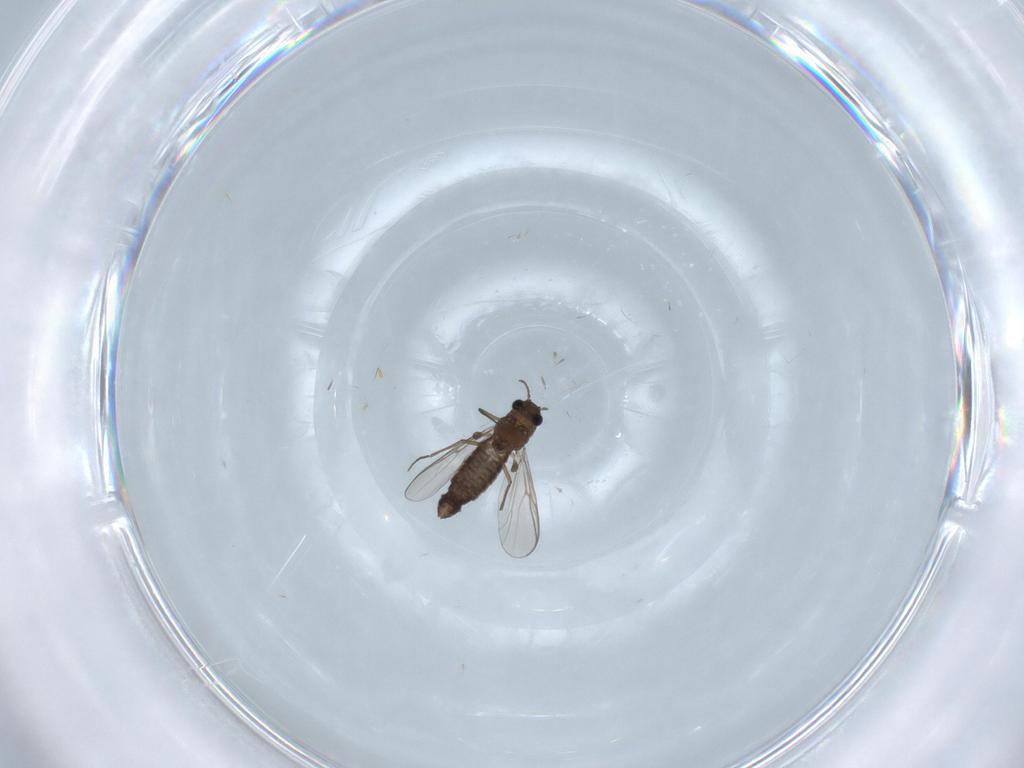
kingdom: Animalia
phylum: Arthropoda
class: Insecta
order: Diptera
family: Chironomidae
